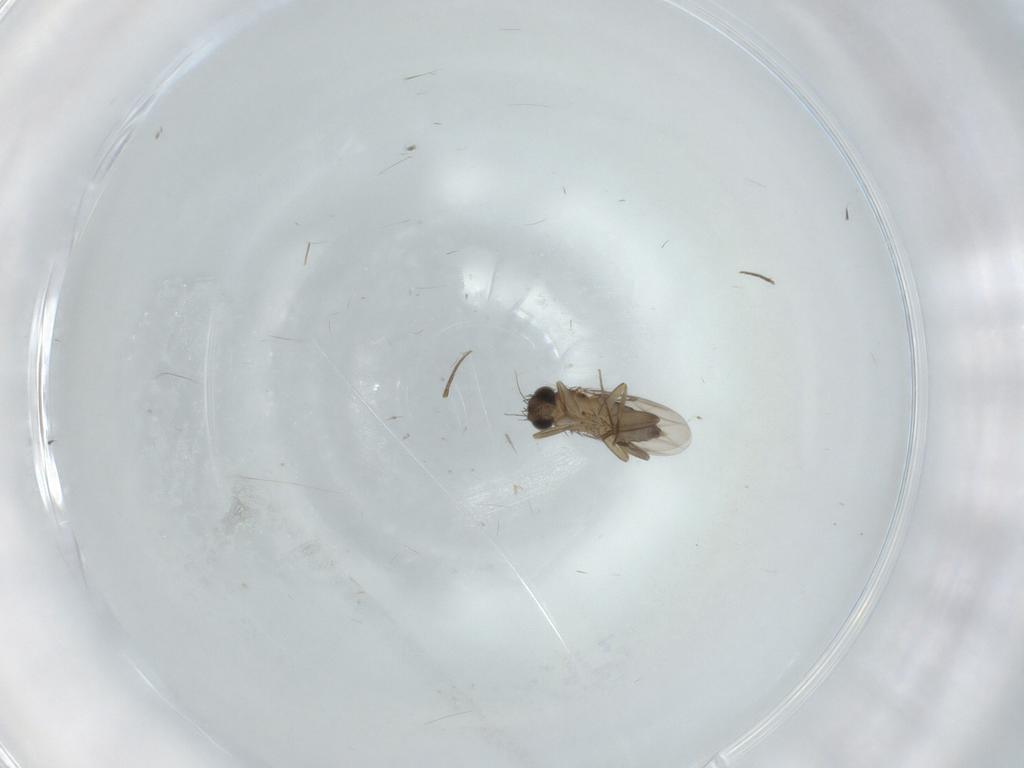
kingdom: Animalia
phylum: Arthropoda
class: Insecta
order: Diptera
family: Phoridae
